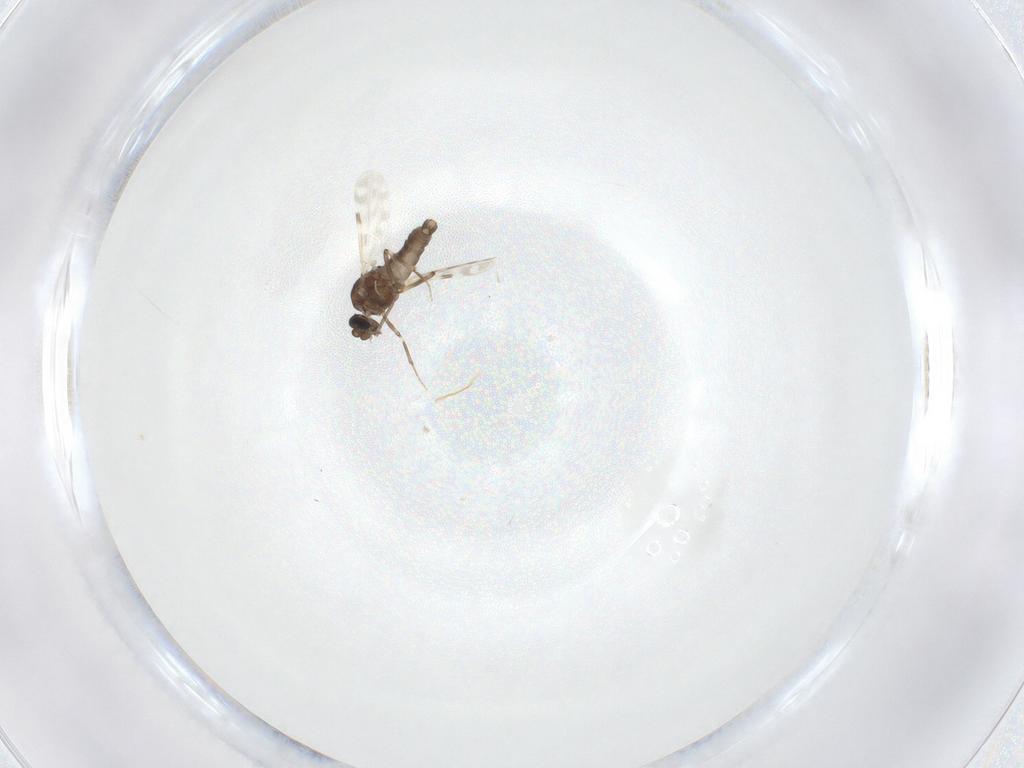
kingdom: Animalia
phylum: Arthropoda
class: Insecta
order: Diptera
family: Ceratopogonidae
